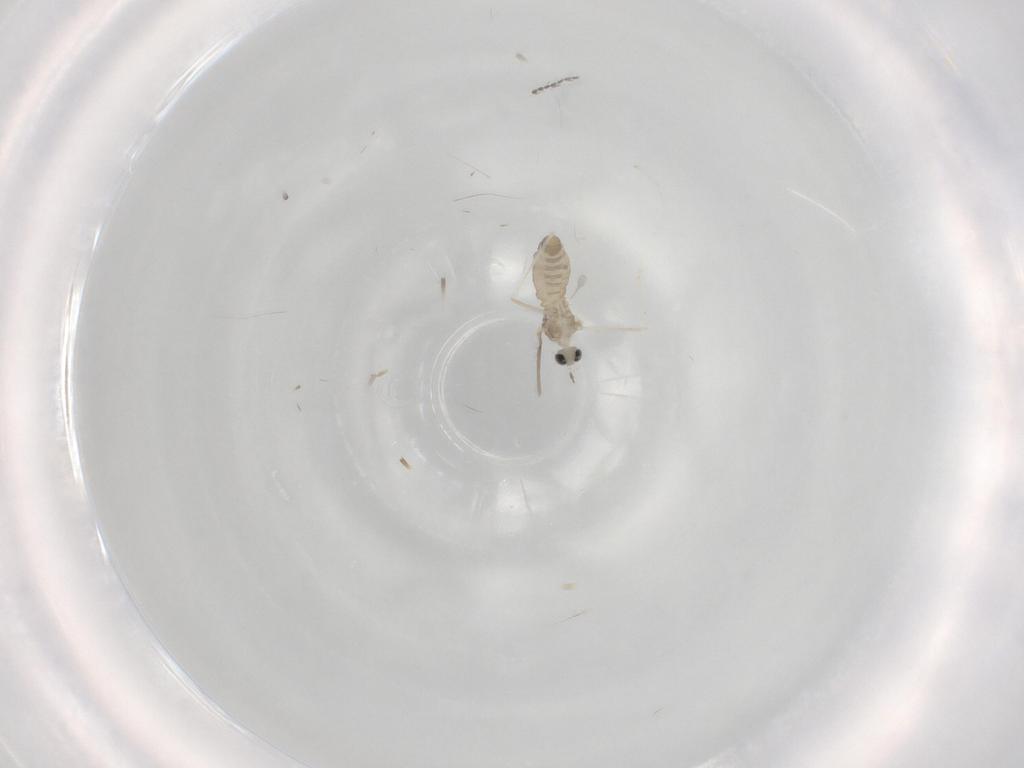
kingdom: Animalia
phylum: Arthropoda
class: Insecta
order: Diptera
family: Cecidomyiidae
